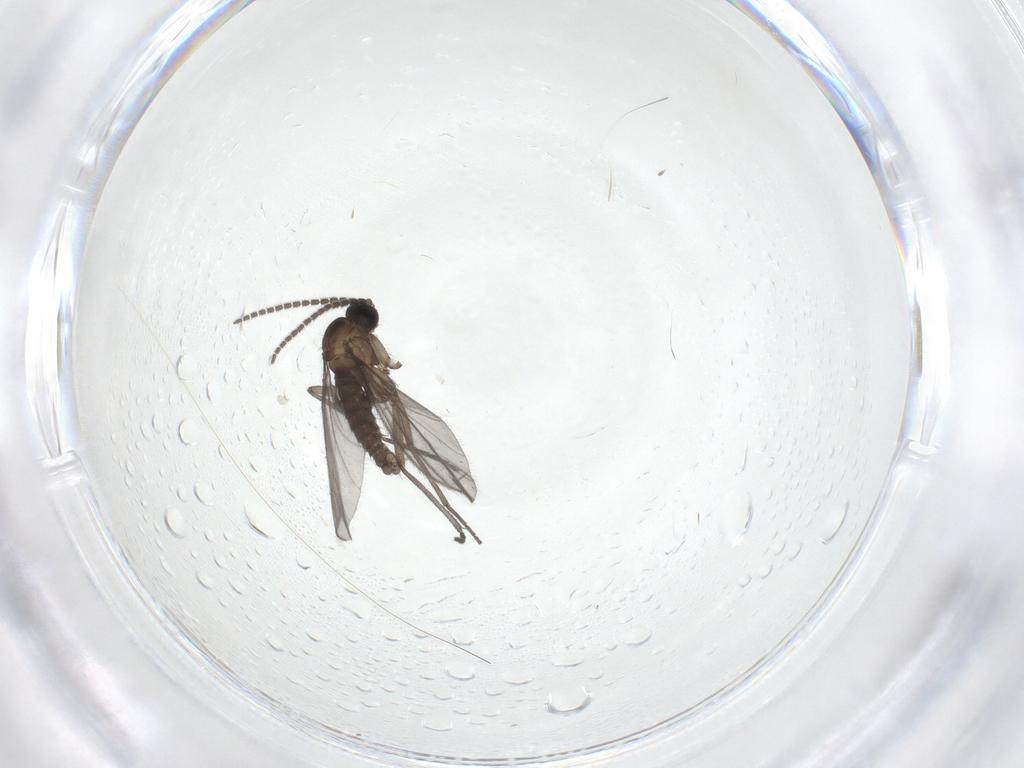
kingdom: Animalia
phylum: Arthropoda
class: Insecta
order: Diptera
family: Sciaridae
